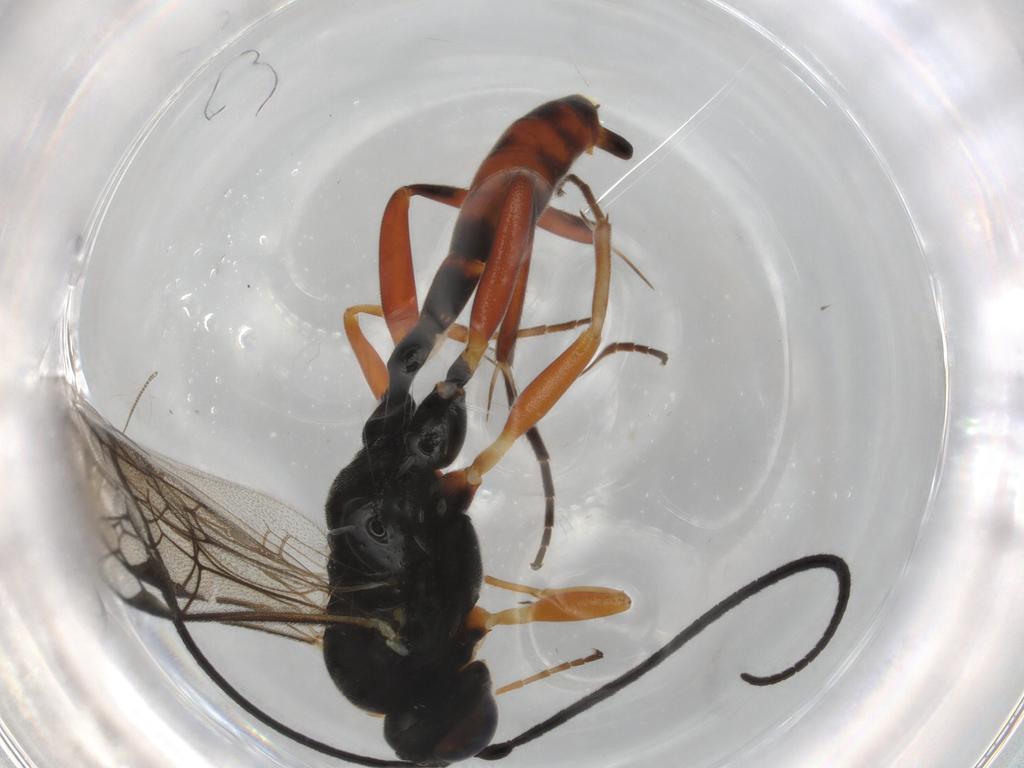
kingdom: Animalia
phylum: Arthropoda
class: Insecta
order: Hymenoptera
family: Ichneumonidae
